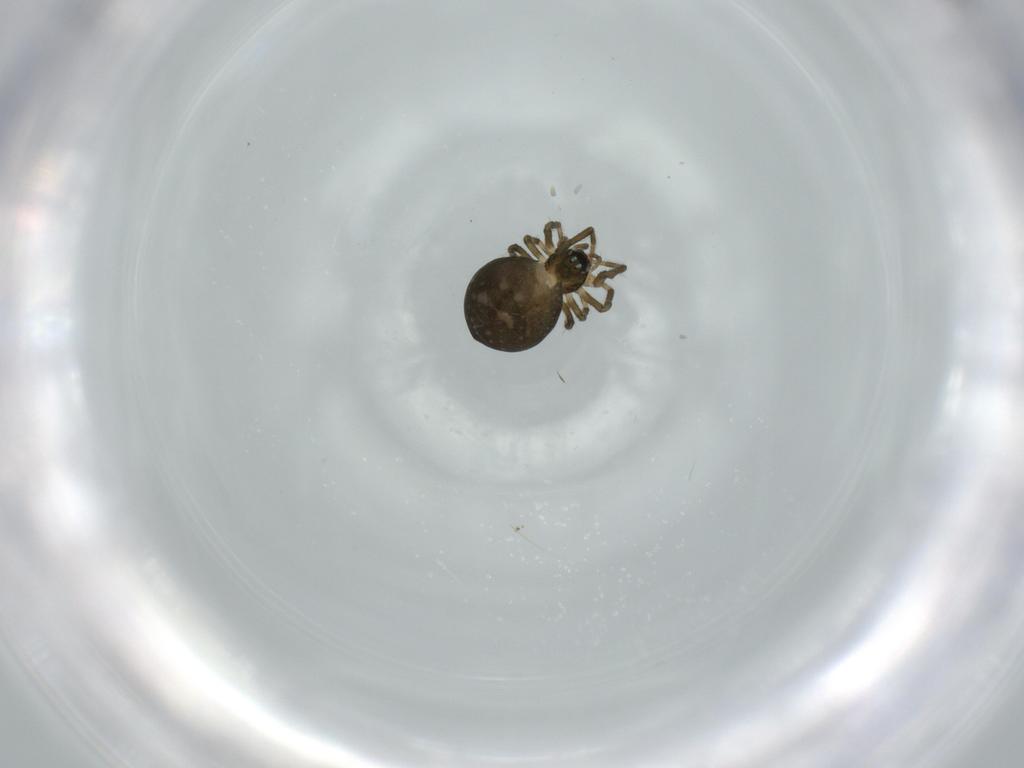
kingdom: Animalia
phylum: Arthropoda
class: Arachnida
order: Araneae
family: Mysmenidae
